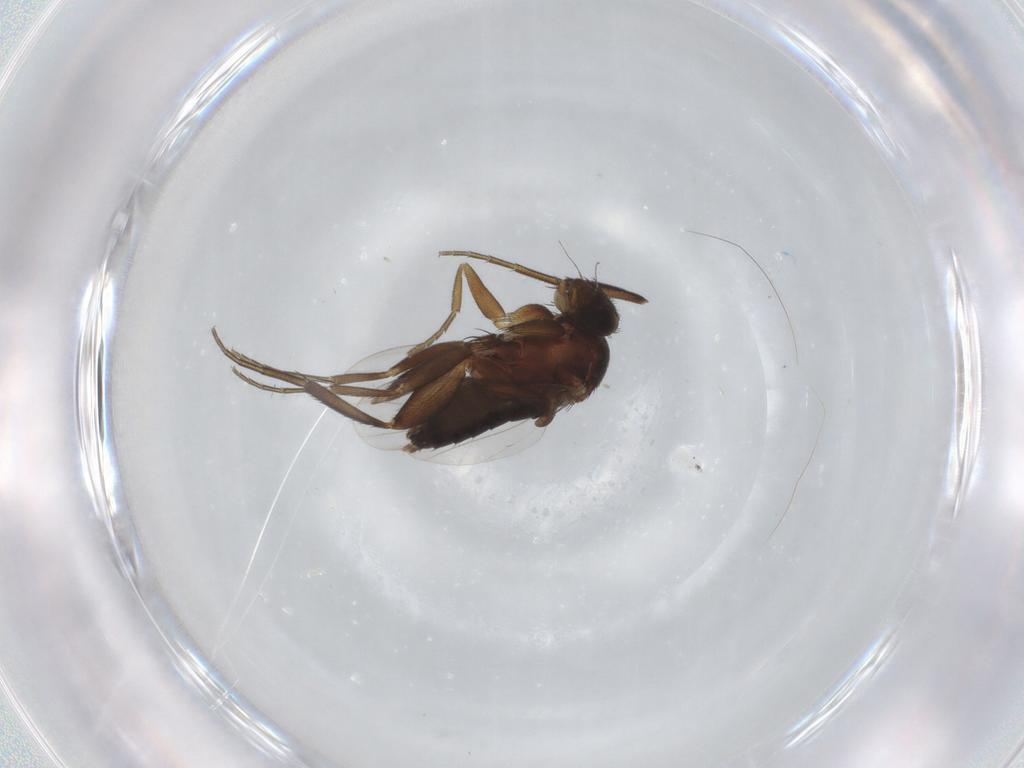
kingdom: Animalia
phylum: Arthropoda
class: Insecta
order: Diptera
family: Phoridae
